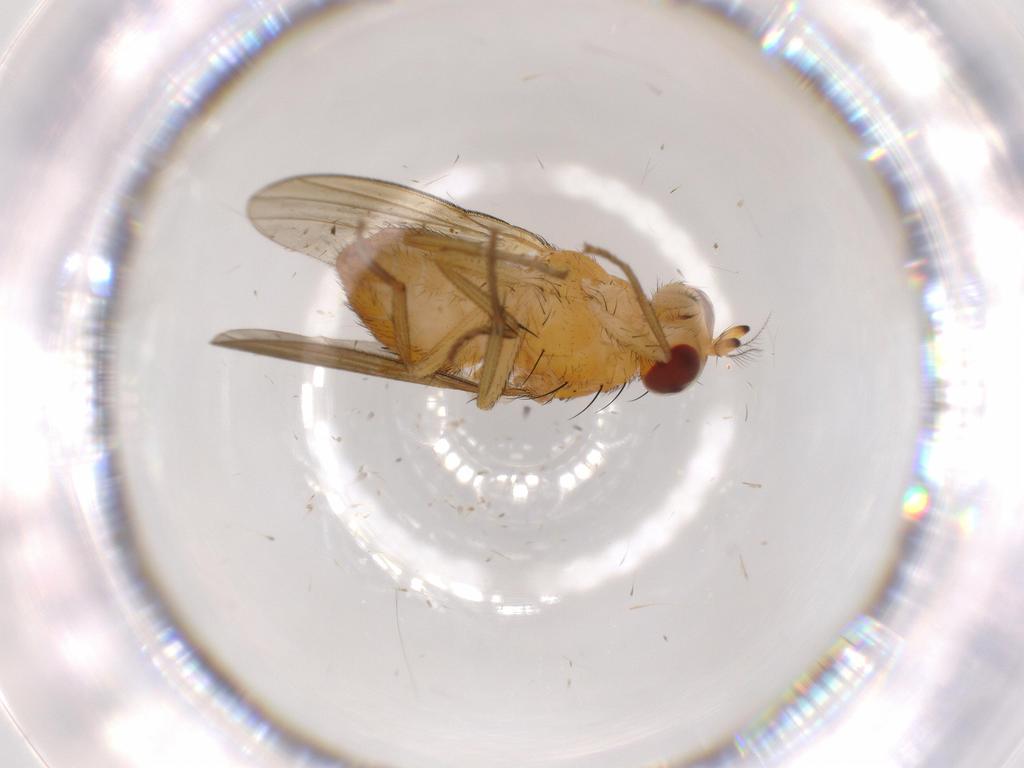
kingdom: Animalia
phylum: Arthropoda
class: Insecta
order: Diptera
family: Lauxaniidae
